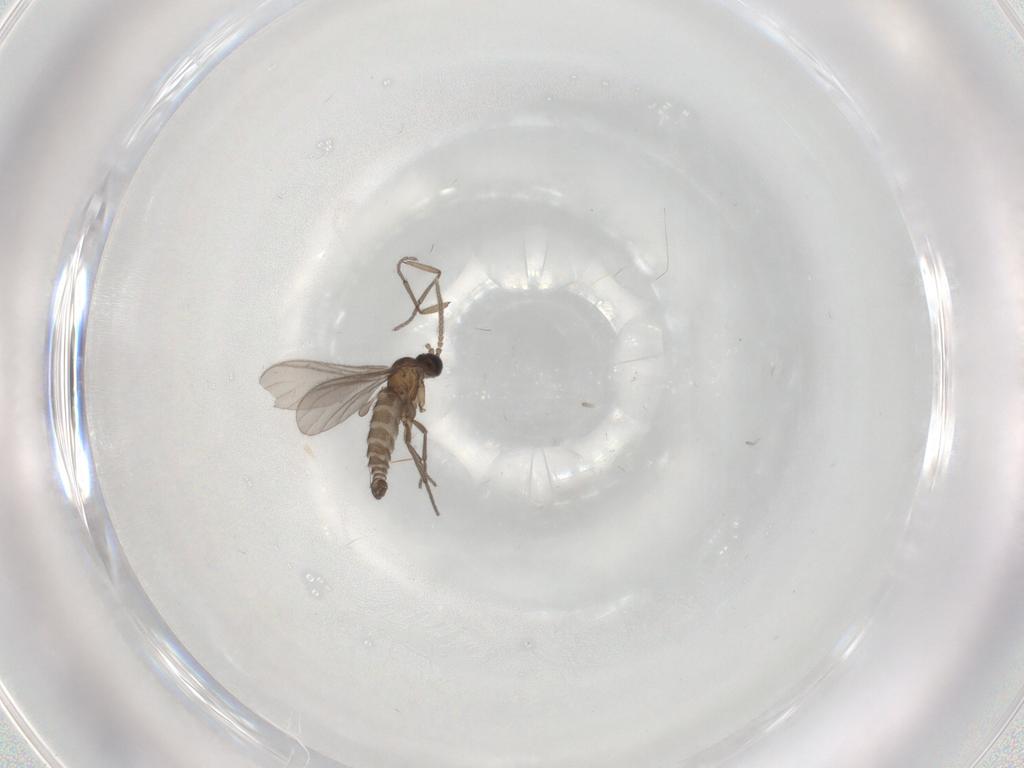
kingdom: Animalia
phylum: Arthropoda
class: Insecta
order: Diptera
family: Sciaridae
